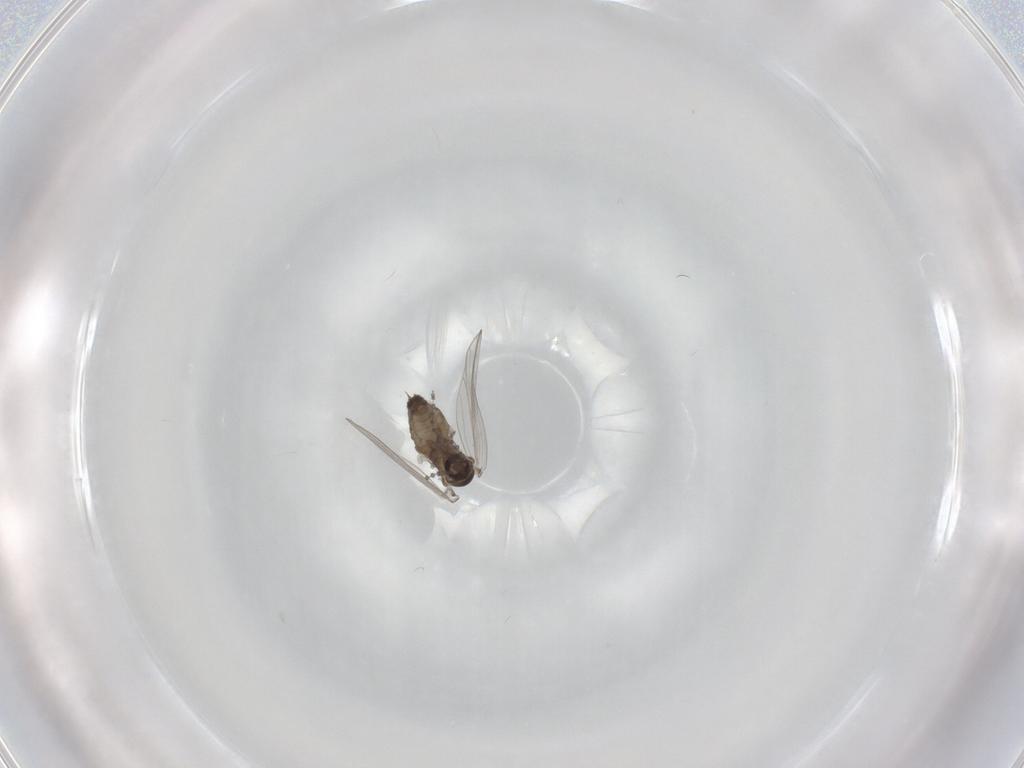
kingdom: Animalia
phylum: Arthropoda
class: Insecta
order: Diptera
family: Psychodidae
